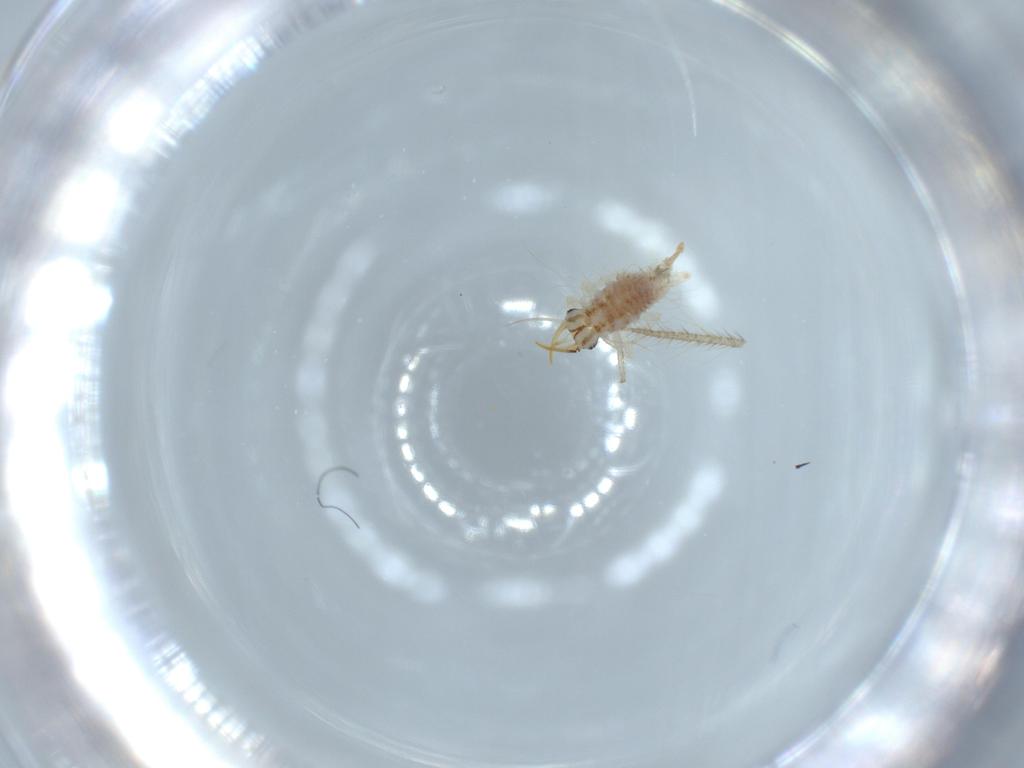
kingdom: Animalia
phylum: Arthropoda
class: Insecta
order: Hymenoptera
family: Formicidae
